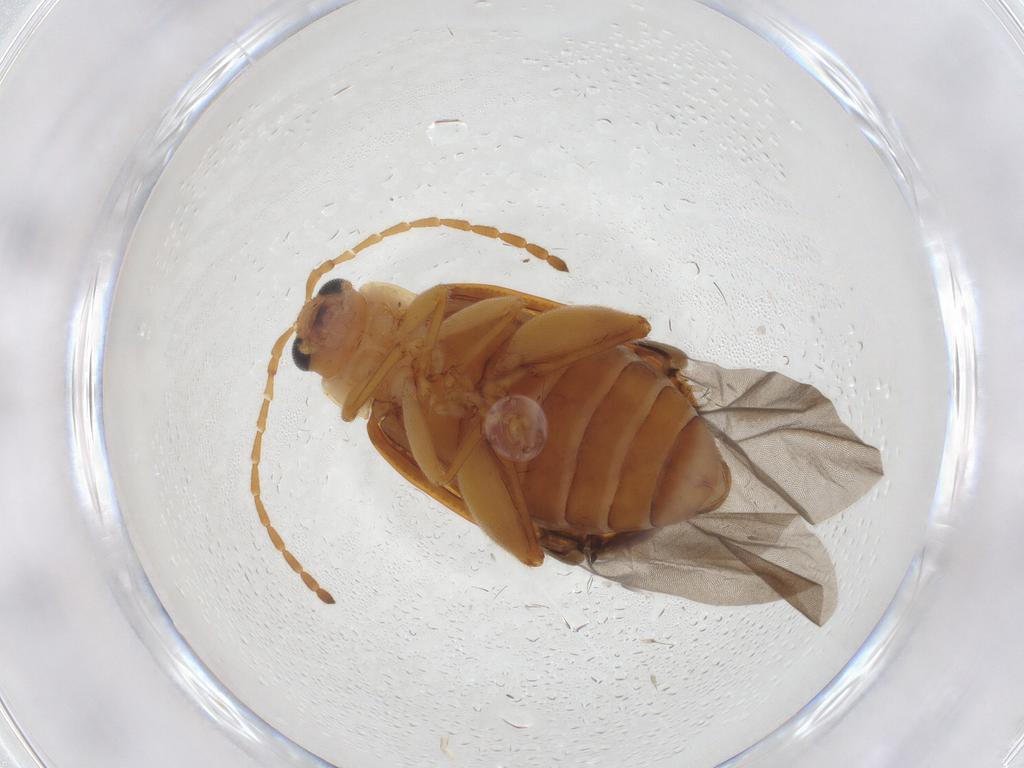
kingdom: Animalia
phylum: Arthropoda
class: Insecta
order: Coleoptera
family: Chrysomelidae
